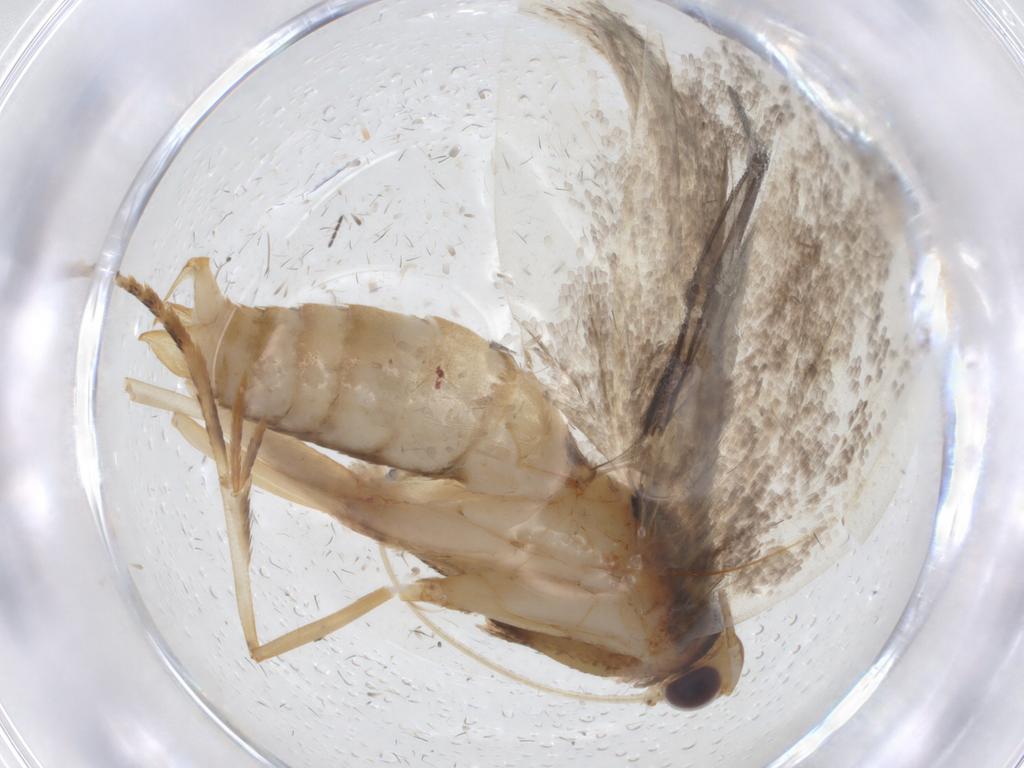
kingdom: Animalia
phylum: Arthropoda
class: Insecta
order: Lepidoptera
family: Oecophoridae
